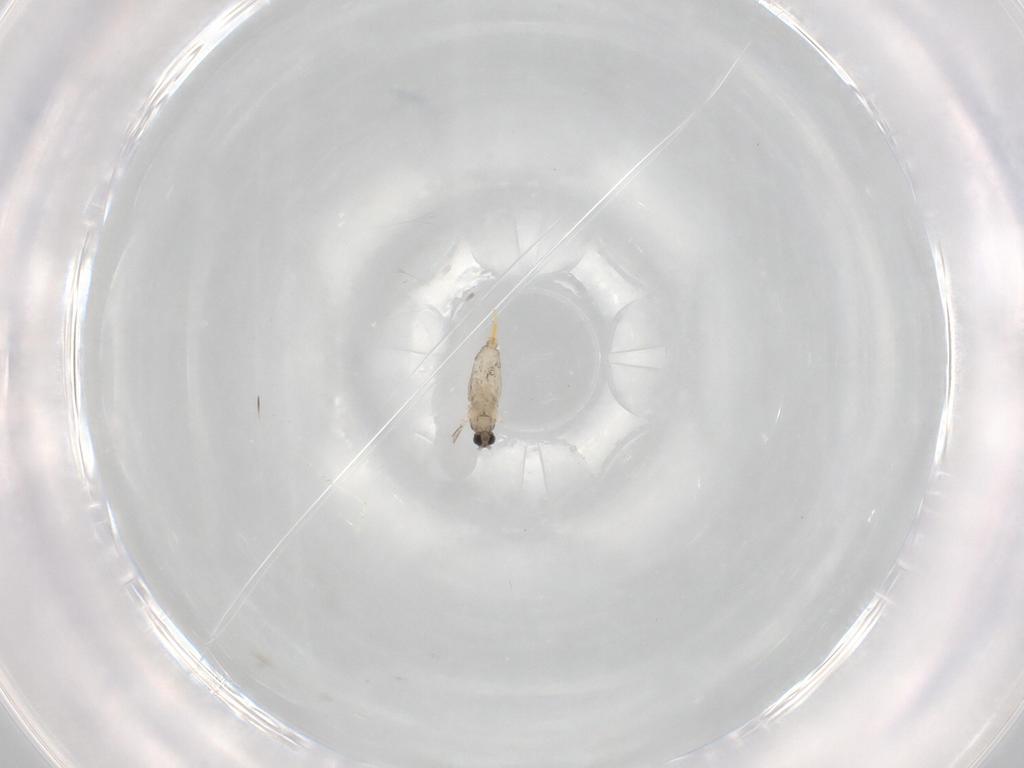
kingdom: Animalia
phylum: Arthropoda
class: Insecta
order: Diptera
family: Cecidomyiidae
